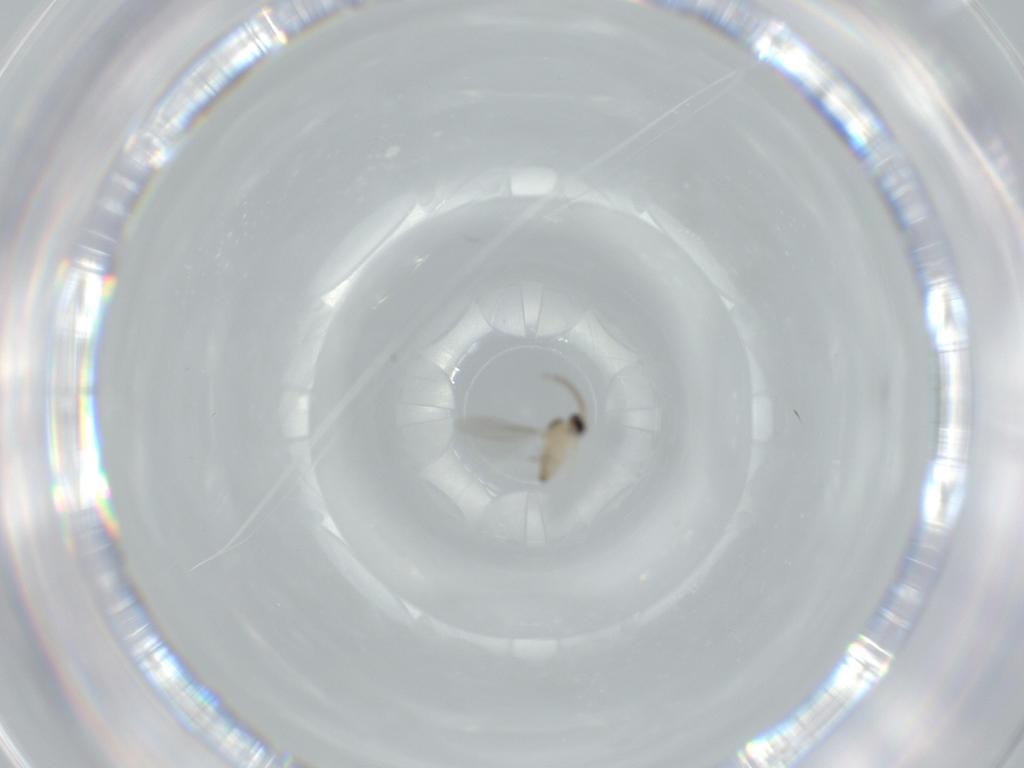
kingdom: Animalia
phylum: Arthropoda
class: Insecta
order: Diptera
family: Cecidomyiidae
